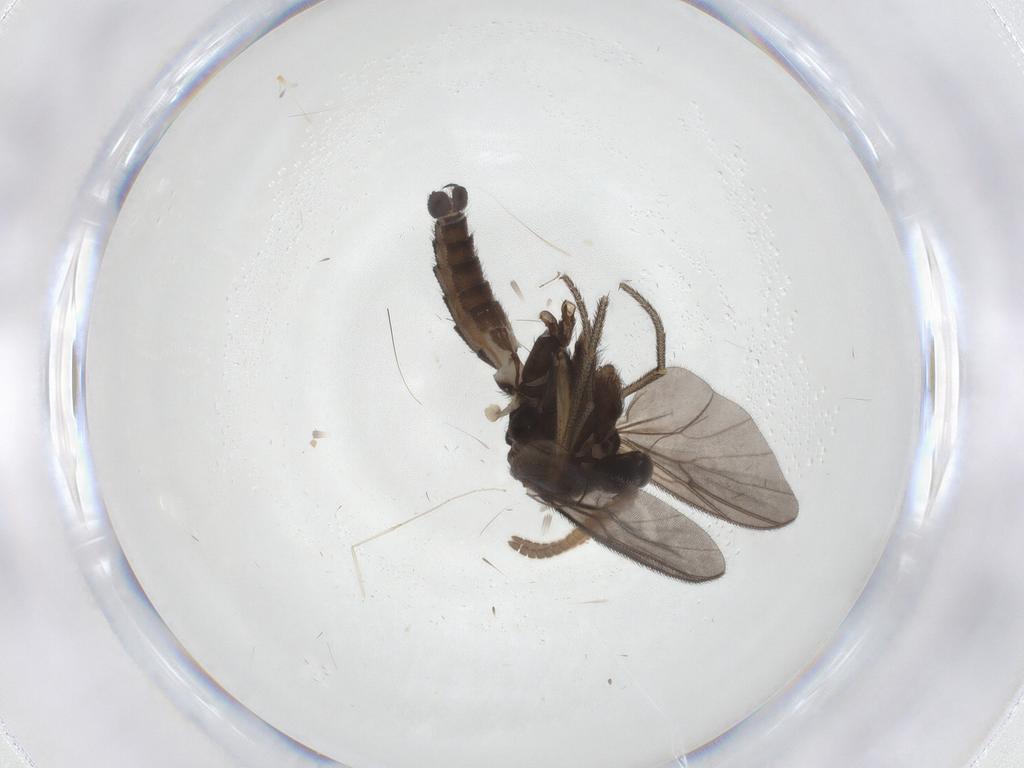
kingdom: Animalia
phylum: Arthropoda
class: Insecta
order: Diptera
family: Mycetophilidae
